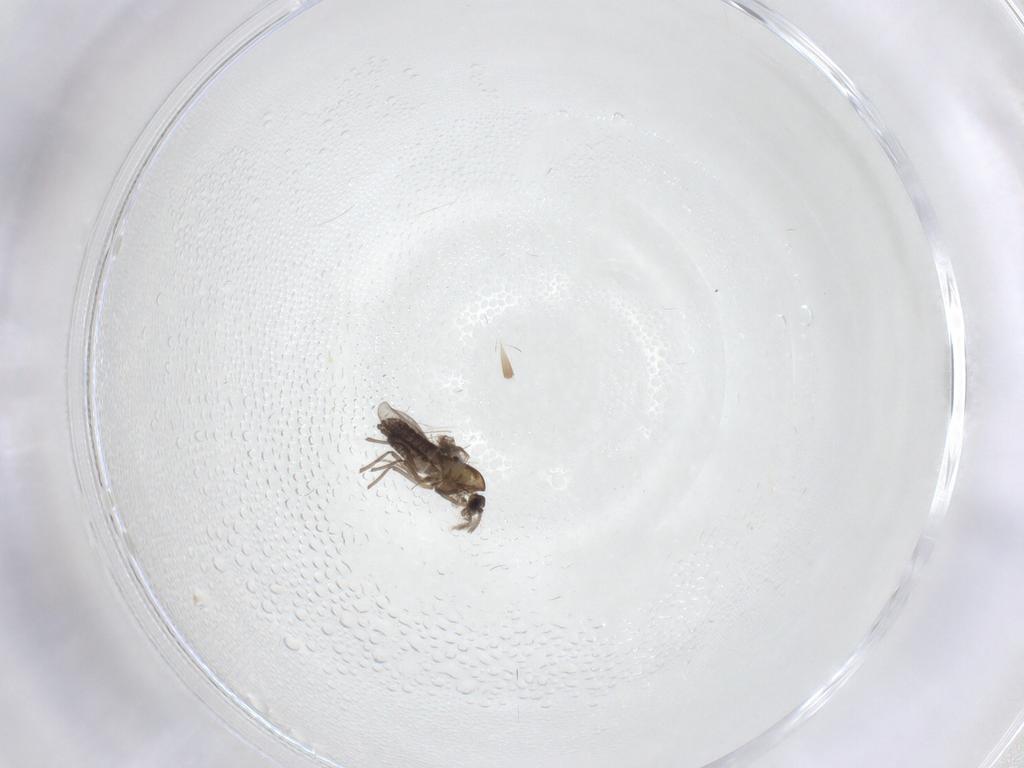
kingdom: Animalia
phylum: Arthropoda
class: Insecta
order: Diptera
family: Chironomidae
